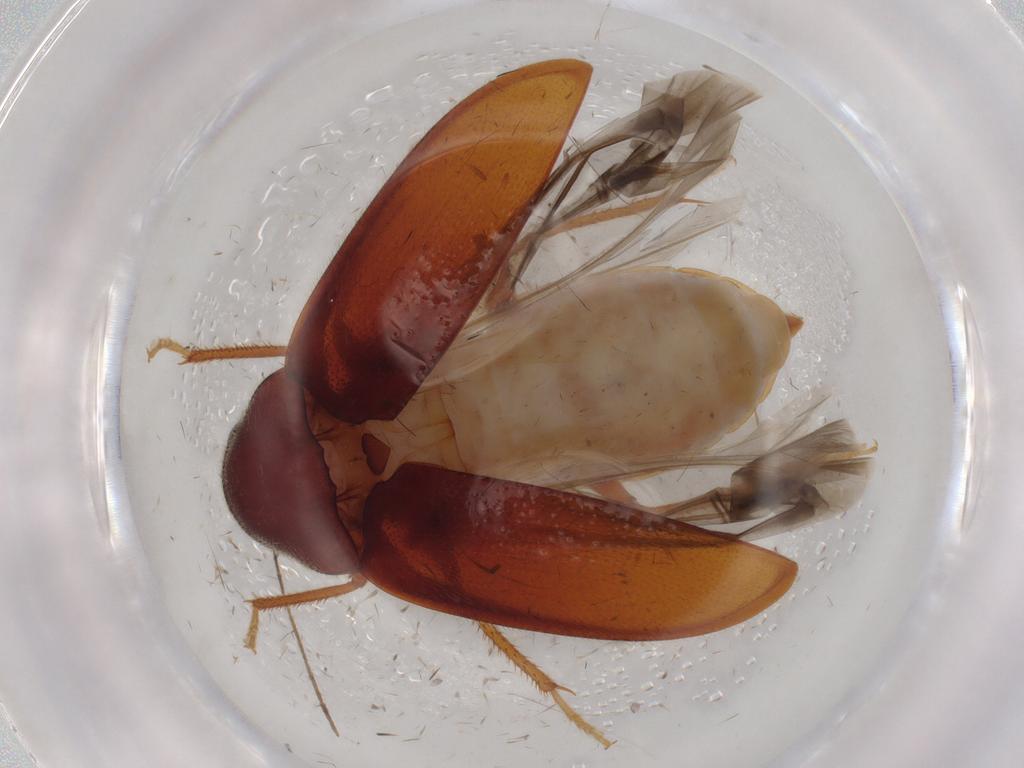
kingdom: Animalia
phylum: Arthropoda
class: Insecta
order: Coleoptera
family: Ptilodactylidae
